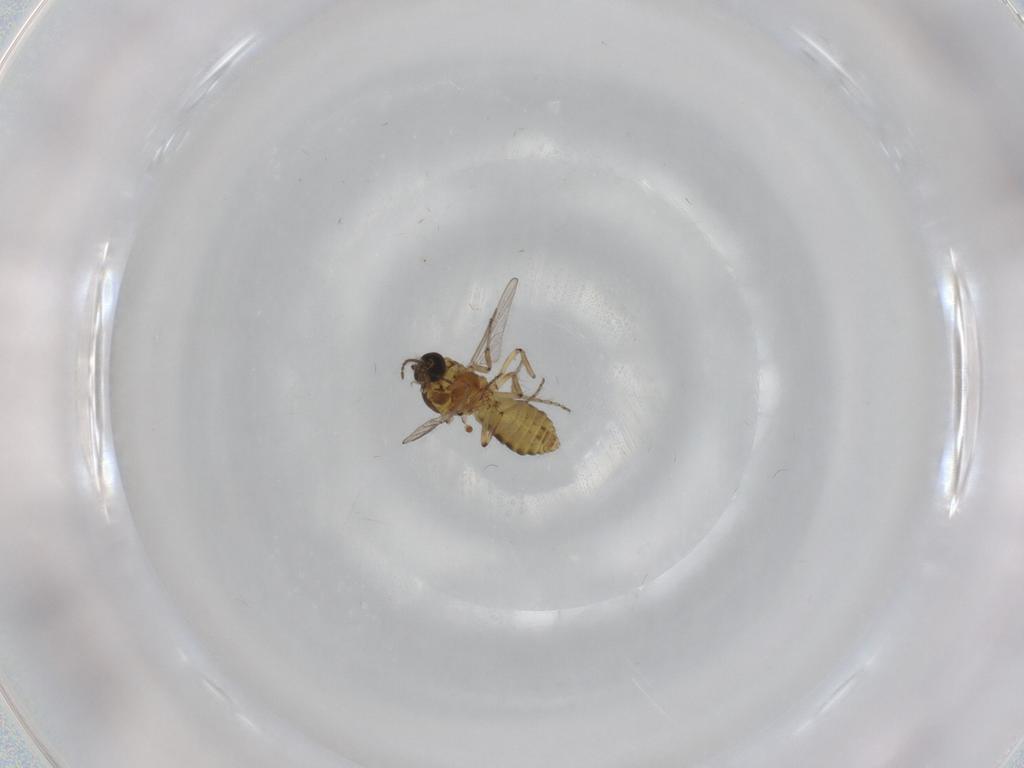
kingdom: Animalia
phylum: Arthropoda
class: Insecta
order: Diptera
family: Ceratopogonidae
